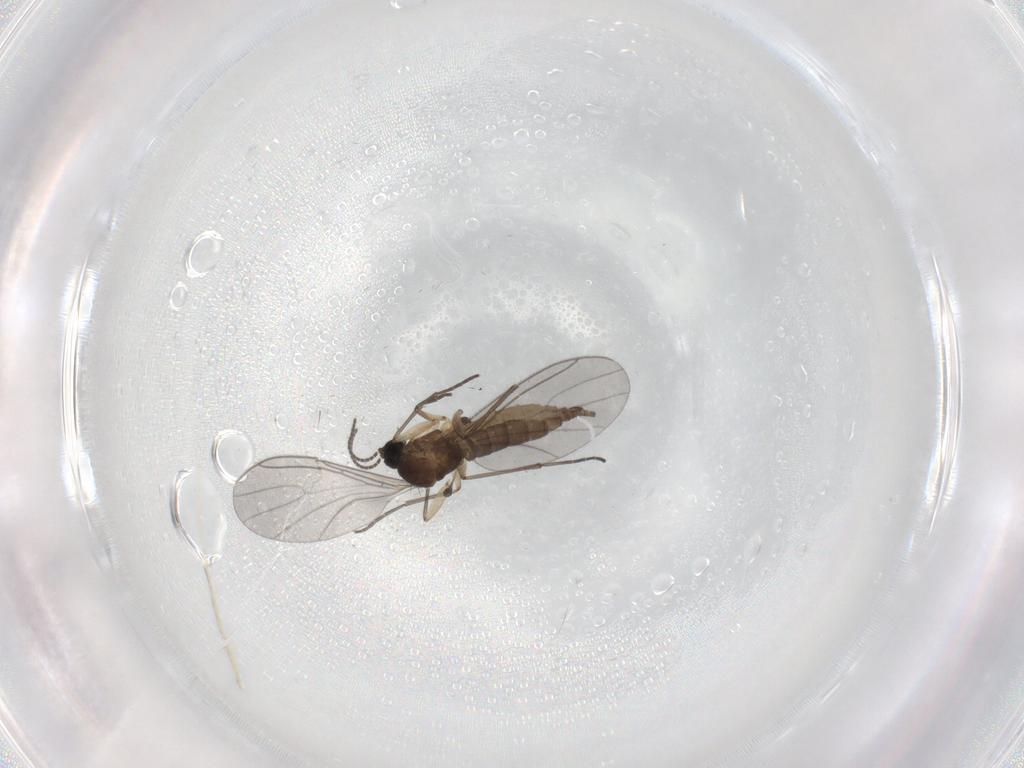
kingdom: Animalia
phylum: Arthropoda
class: Insecta
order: Diptera
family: Sciaridae
